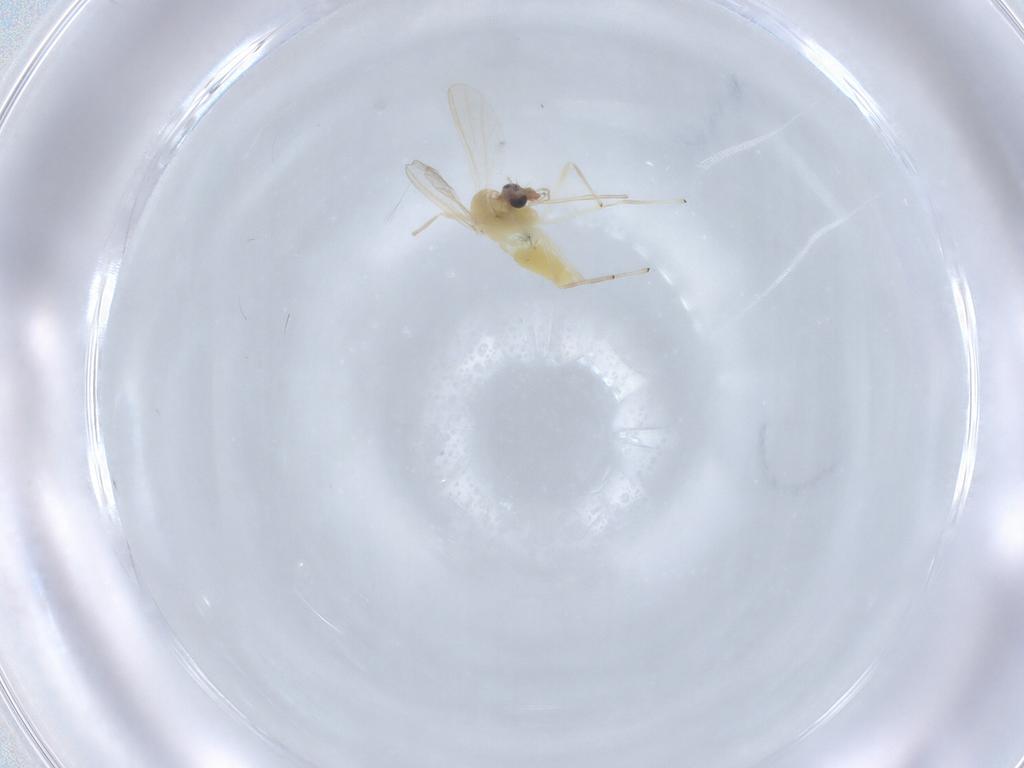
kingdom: Animalia
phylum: Arthropoda
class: Insecta
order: Diptera
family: Chironomidae
